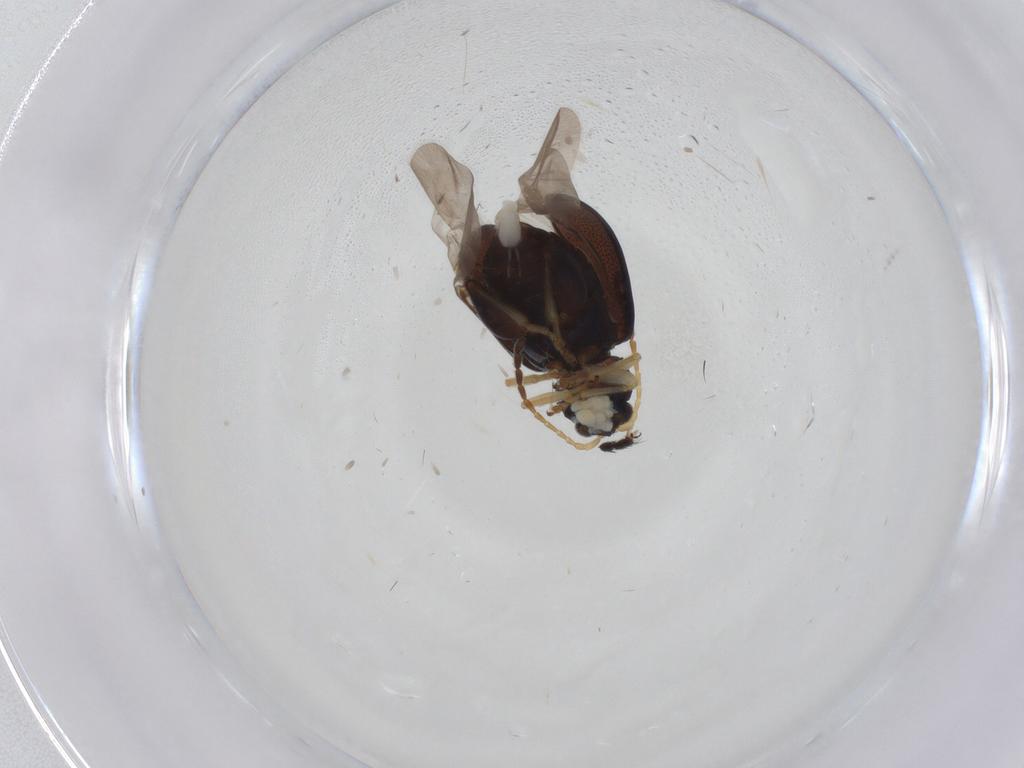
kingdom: Animalia
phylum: Arthropoda
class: Insecta
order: Coleoptera
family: Chrysomelidae
